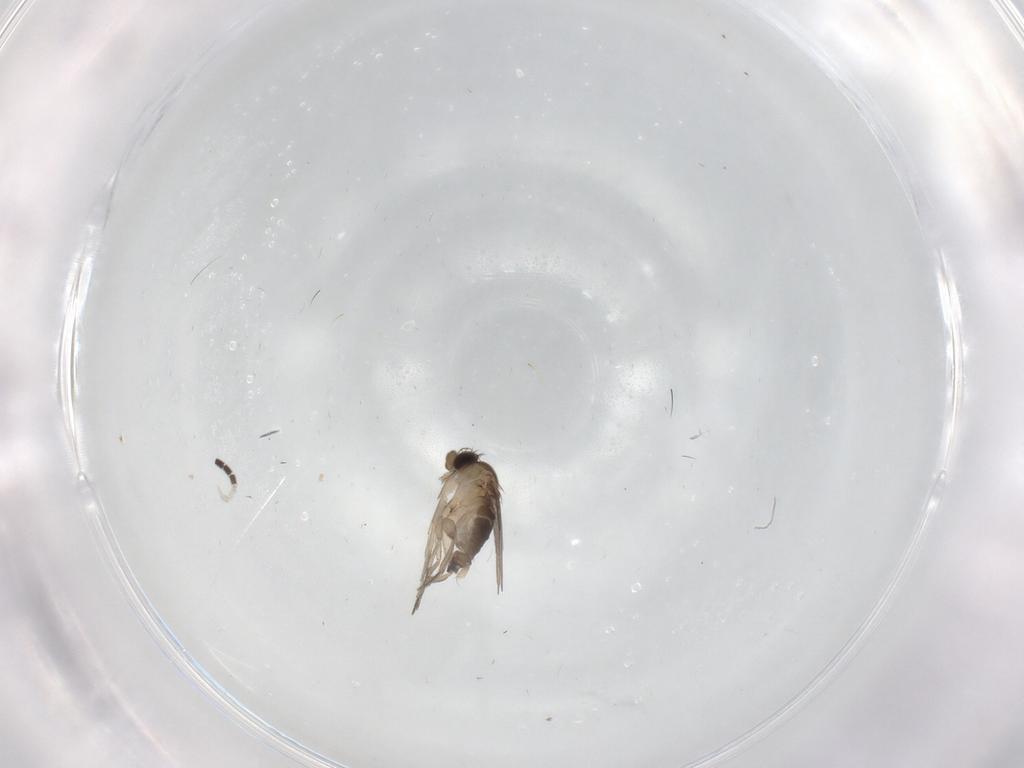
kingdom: Animalia
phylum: Arthropoda
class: Insecta
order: Diptera
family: Phoridae
